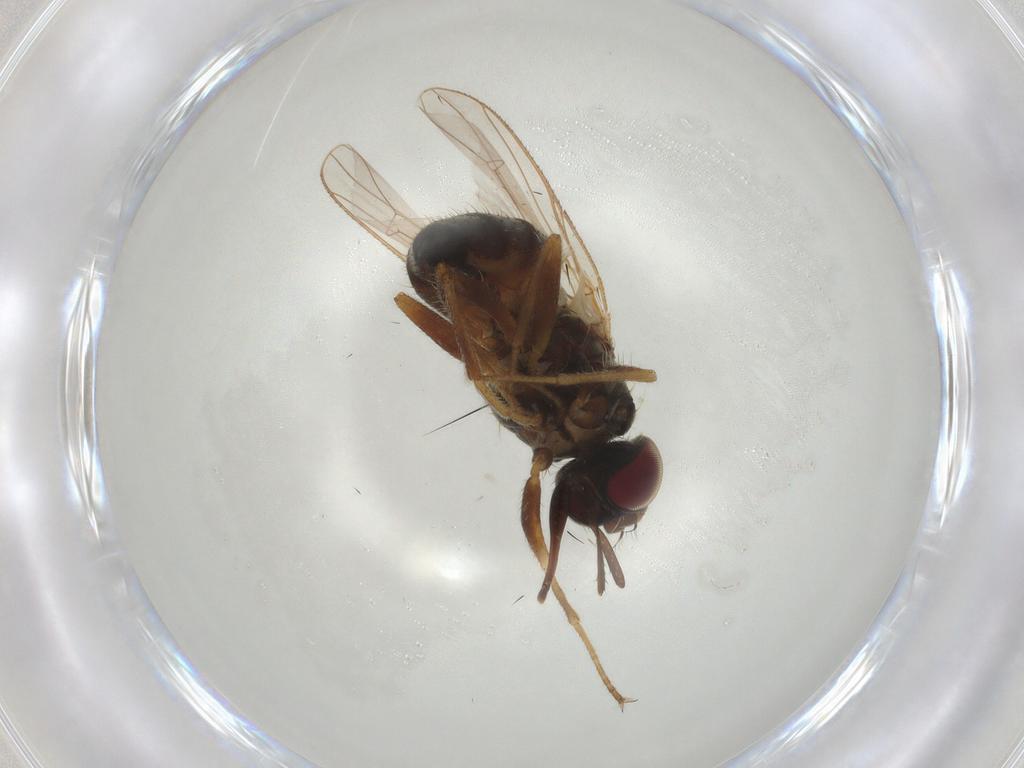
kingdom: Animalia
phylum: Arthropoda
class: Insecta
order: Diptera
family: Muscidae
